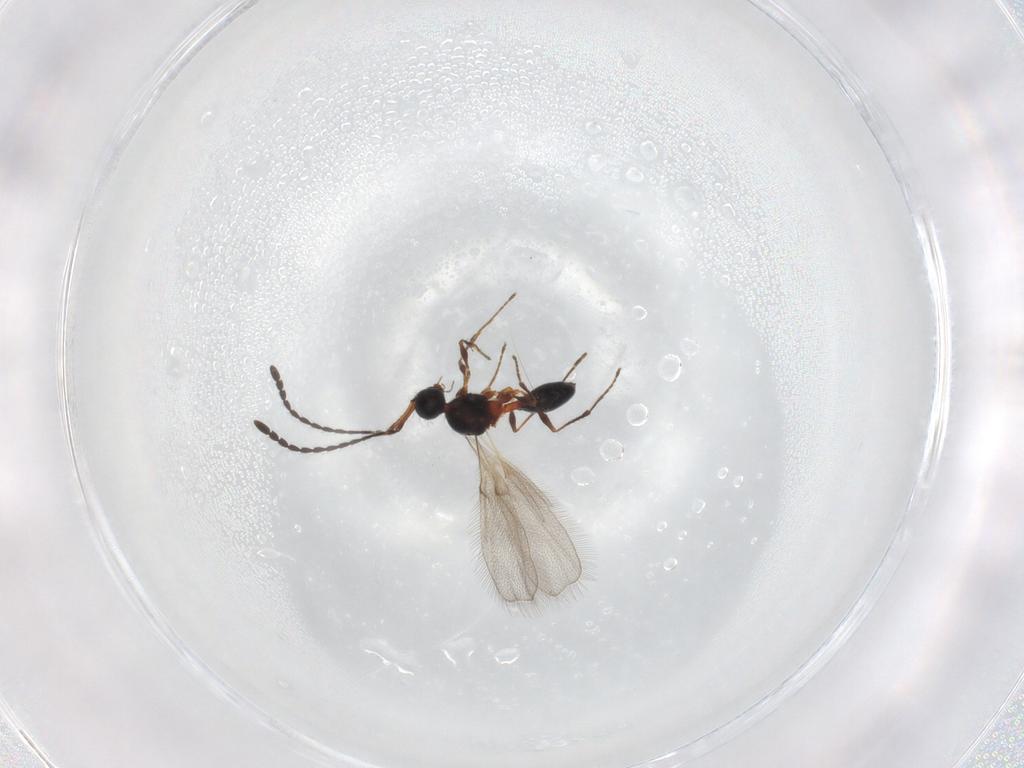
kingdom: Animalia
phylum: Arthropoda
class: Insecta
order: Hymenoptera
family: Diapriidae
